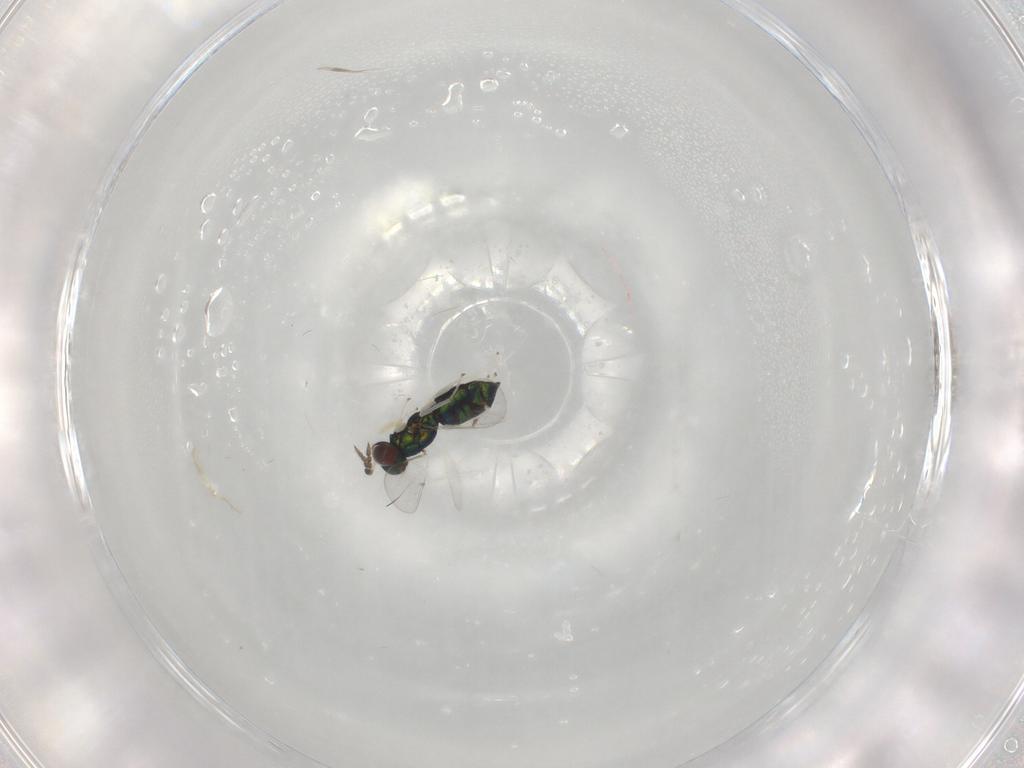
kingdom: Animalia
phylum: Arthropoda
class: Insecta
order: Hymenoptera
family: Eulophidae
